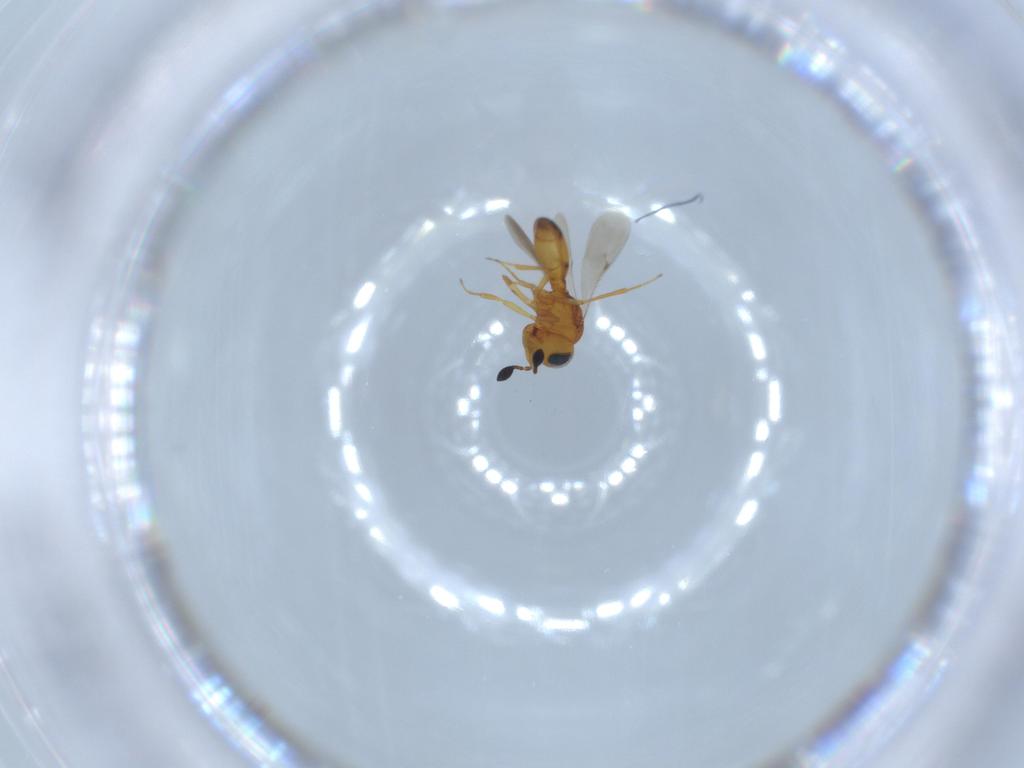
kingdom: Animalia
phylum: Arthropoda
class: Insecta
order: Hymenoptera
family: Scelionidae
